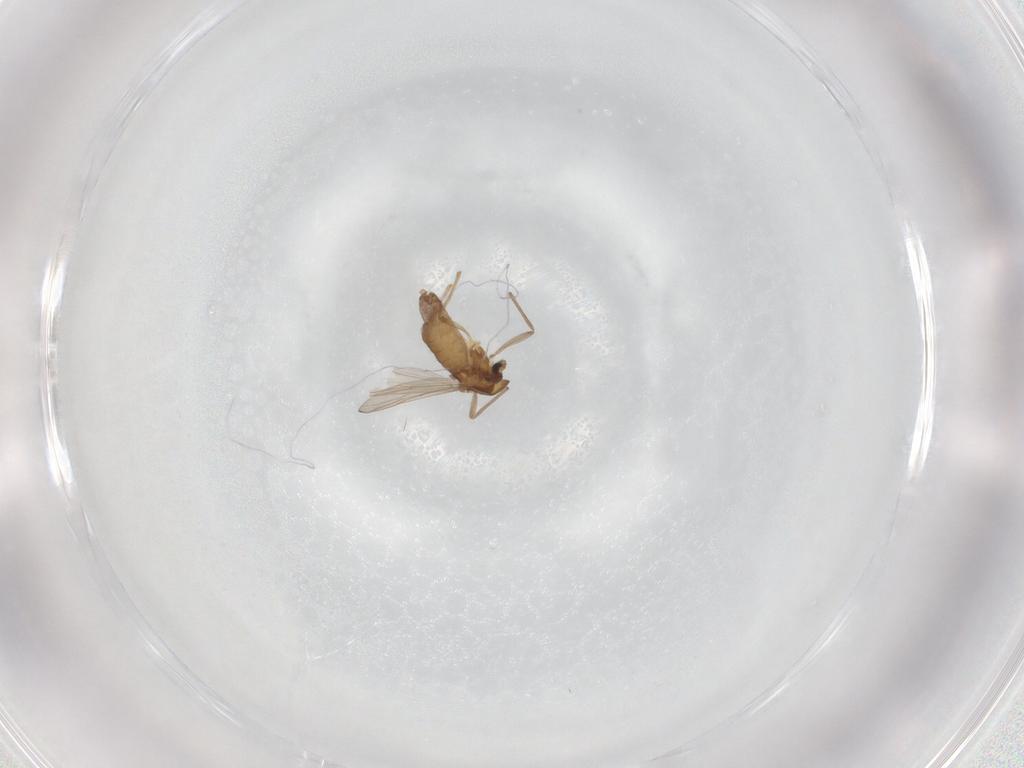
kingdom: Animalia
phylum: Arthropoda
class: Insecta
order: Diptera
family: Chironomidae
